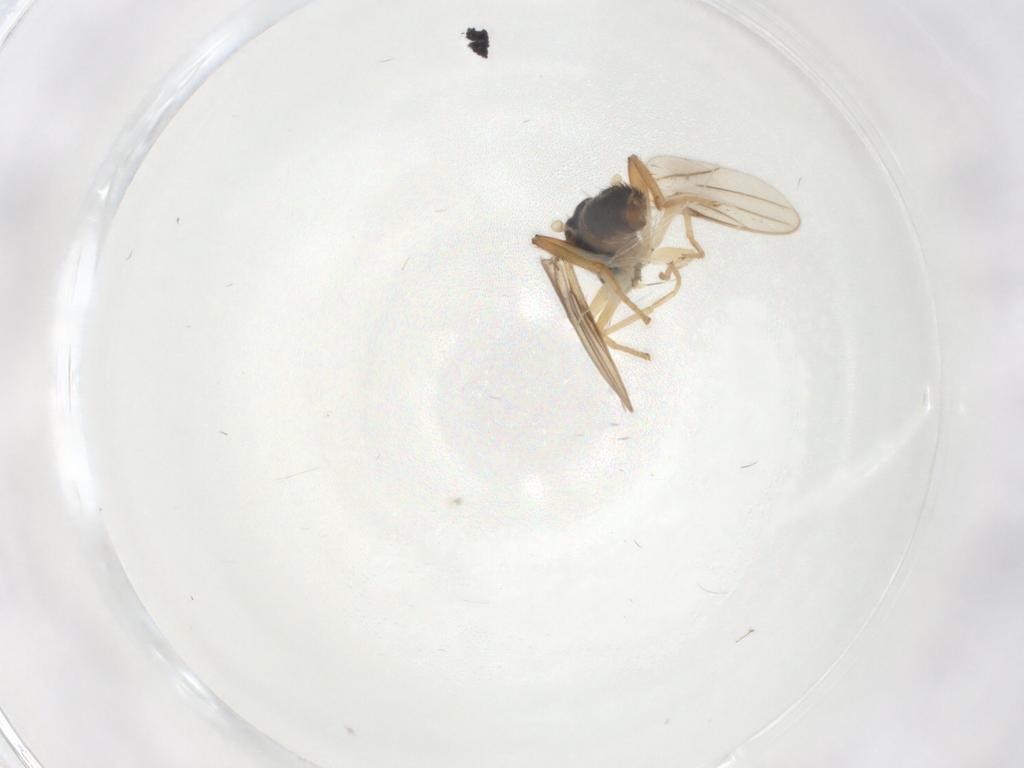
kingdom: Animalia
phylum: Arthropoda
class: Insecta
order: Diptera
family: Hybotidae
